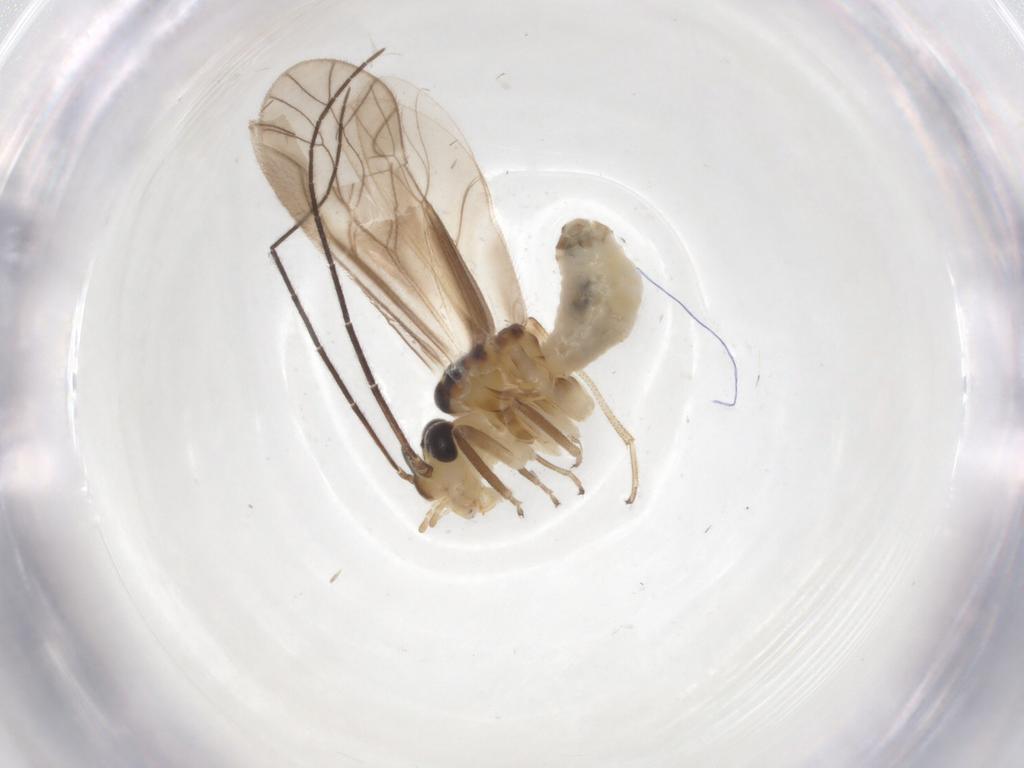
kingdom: Animalia
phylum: Arthropoda
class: Insecta
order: Psocodea
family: Caeciliusidae
